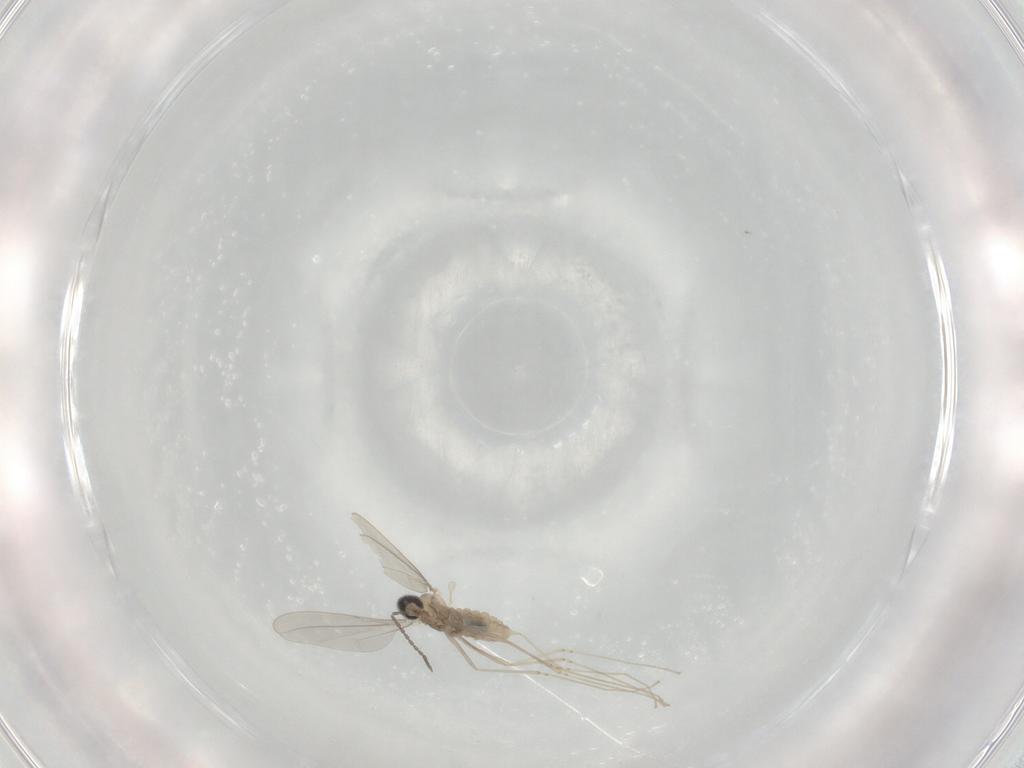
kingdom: Animalia
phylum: Arthropoda
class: Insecta
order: Diptera
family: Cecidomyiidae
